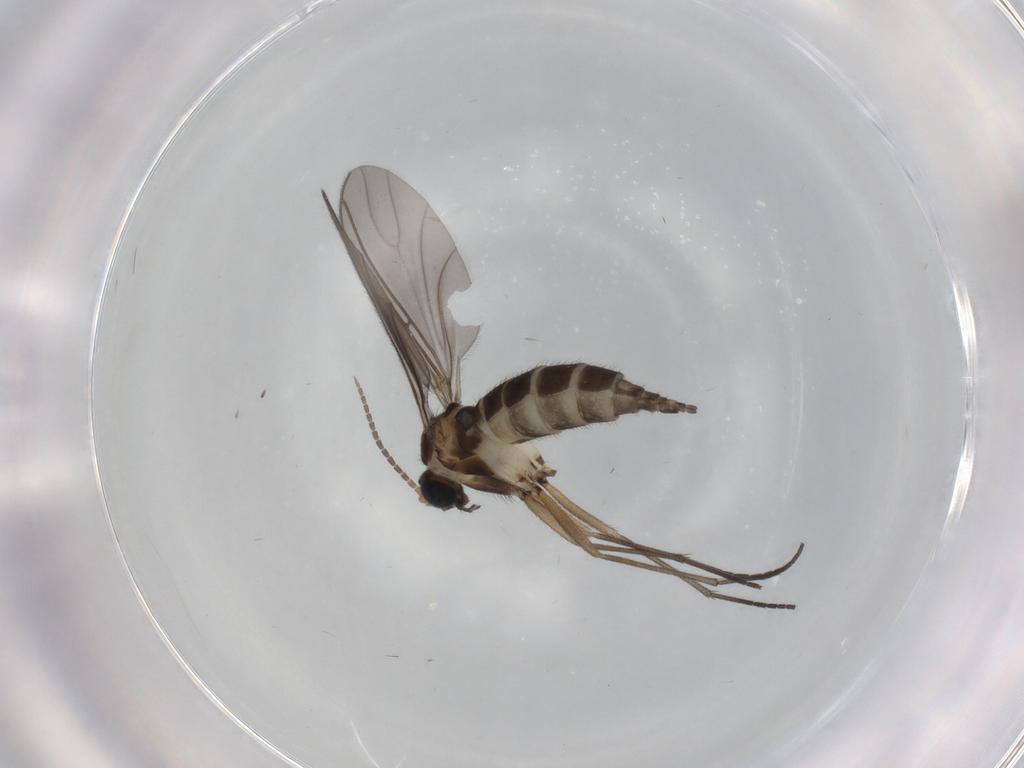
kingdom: Animalia
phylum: Arthropoda
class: Insecta
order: Diptera
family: Sciaridae
